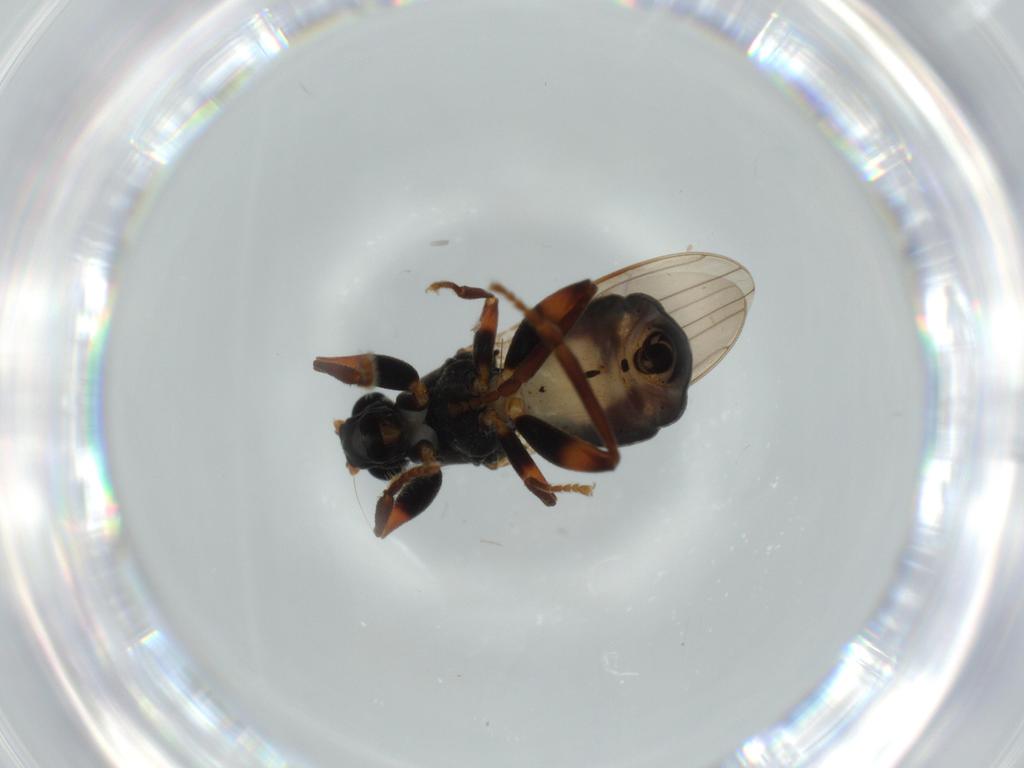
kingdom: Animalia
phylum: Arthropoda
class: Insecta
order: Diptera
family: Sphaeroceridae
